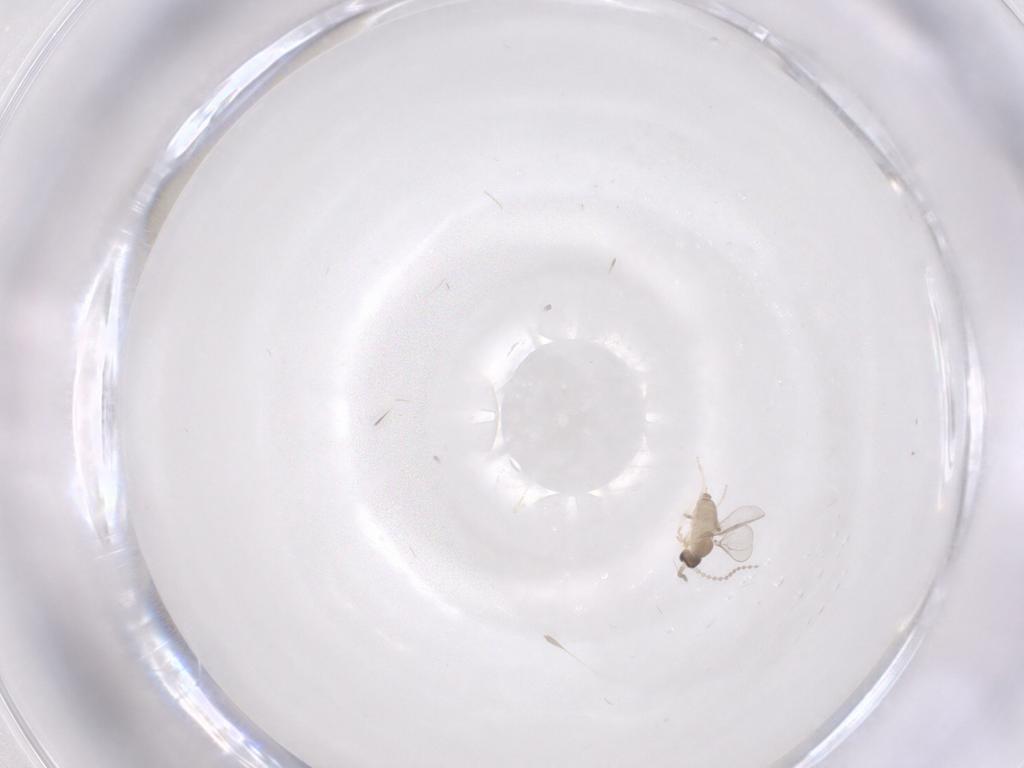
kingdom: Animalia
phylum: Arthropoda
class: Insecta
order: Diptera
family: Cecidomyiidae
